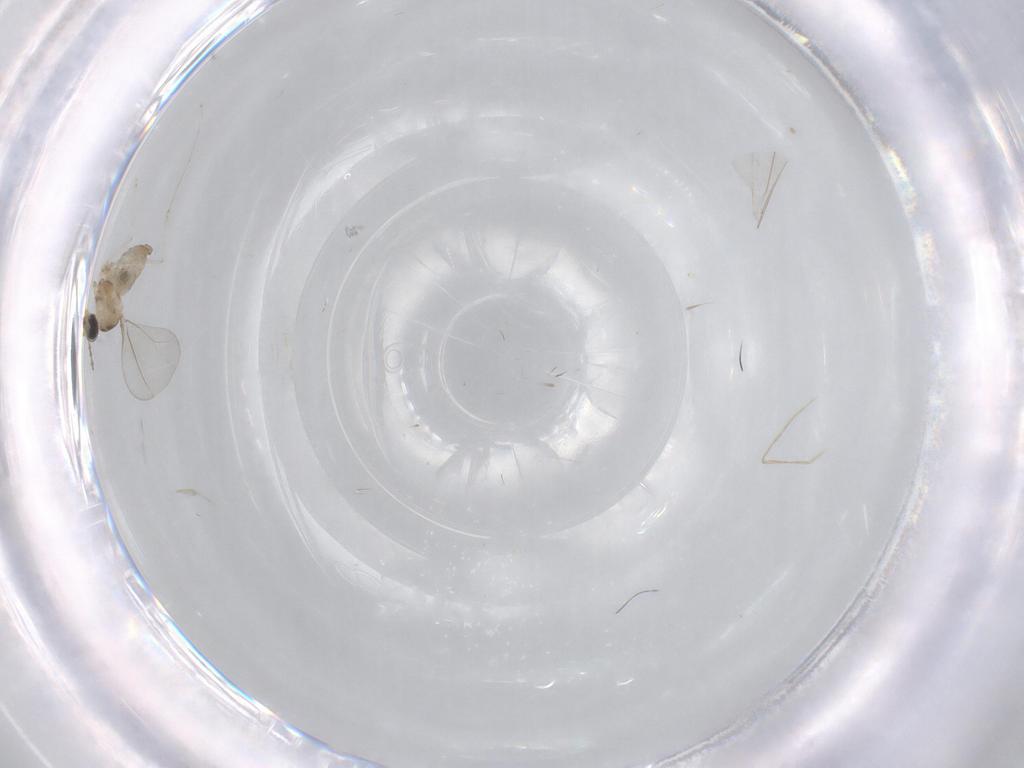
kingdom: Animalia
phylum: Arthropoda
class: Insecta
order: Diptera
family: Cecidomyiidae
